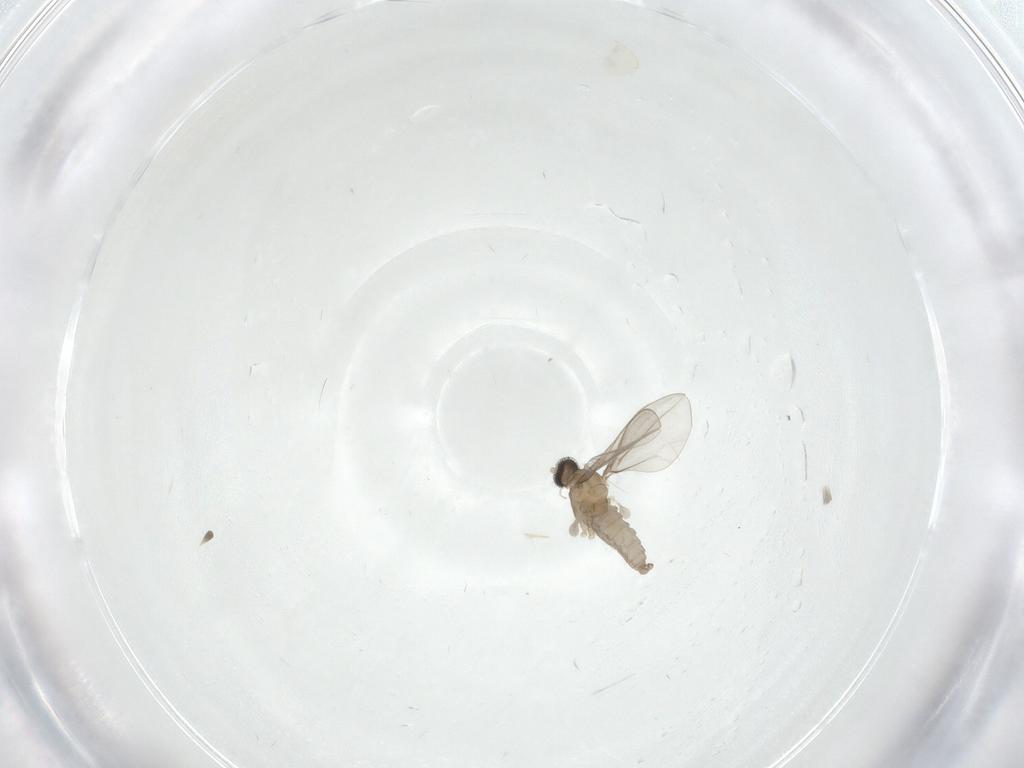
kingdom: Animalia
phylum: Arthropoda
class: Insecta
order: Diptera
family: Cecidomyiidae
